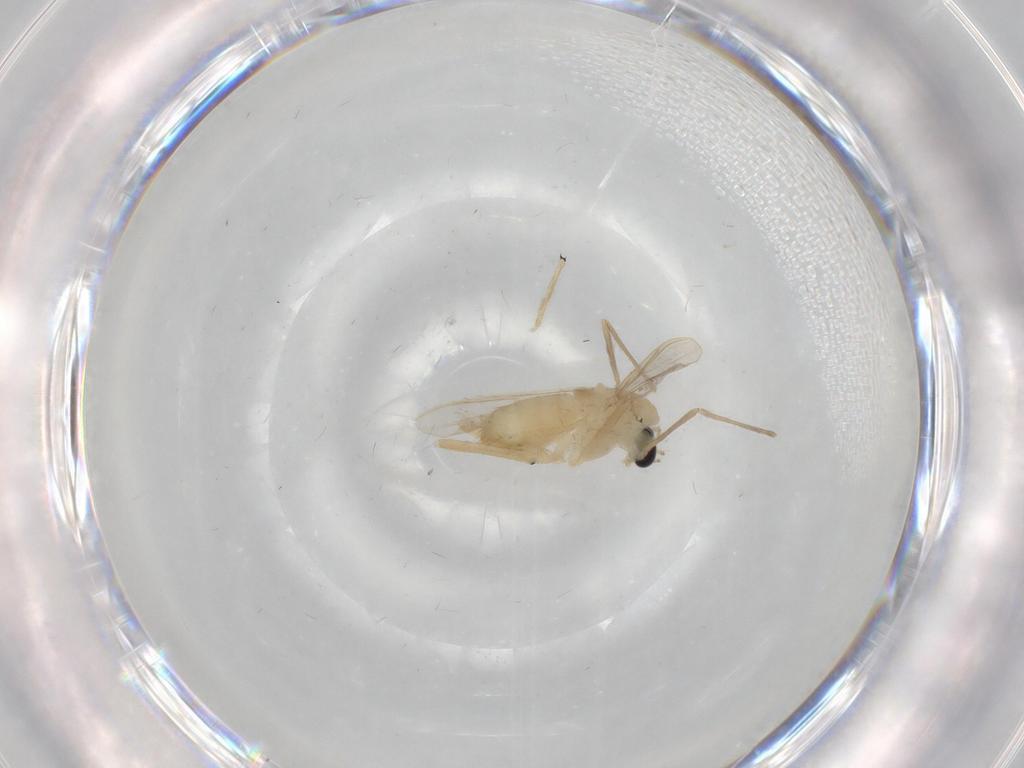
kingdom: Animalia
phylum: Arthropoda
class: Insecta
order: Diptera
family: Chironomidae
